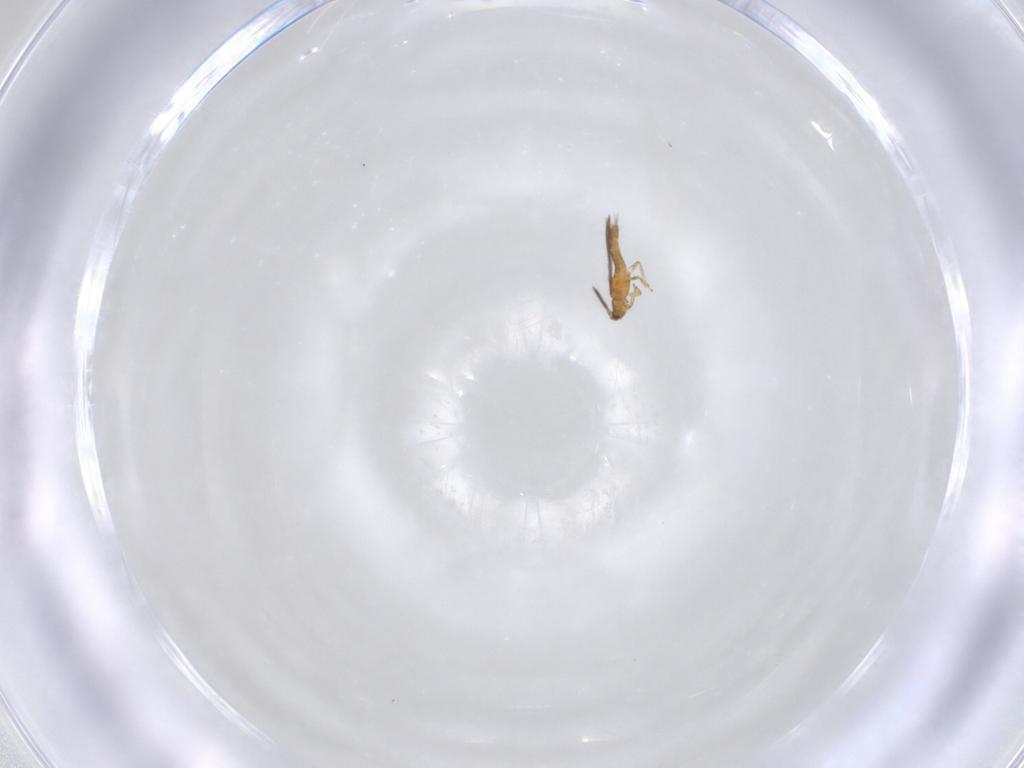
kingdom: Animalia
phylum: Arthropoda
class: Insecta
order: Thysanoptera
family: Thripidae
